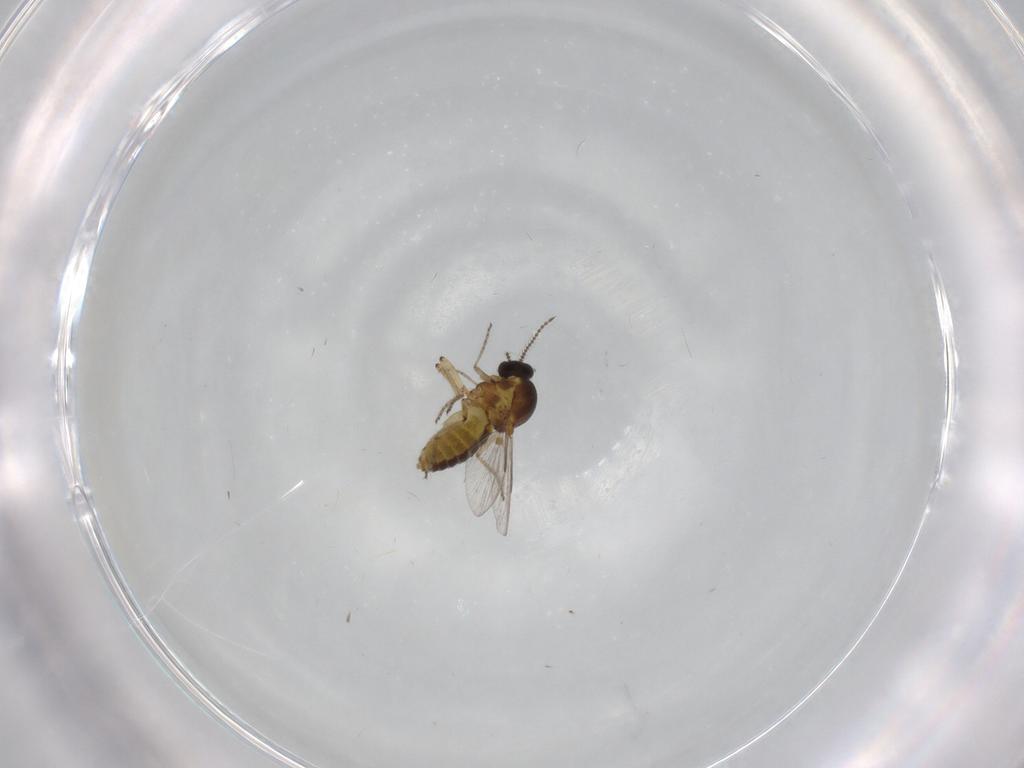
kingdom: Animalia
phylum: Arthropoda
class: Insecta
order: Diptera
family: Ceratopogonidae
